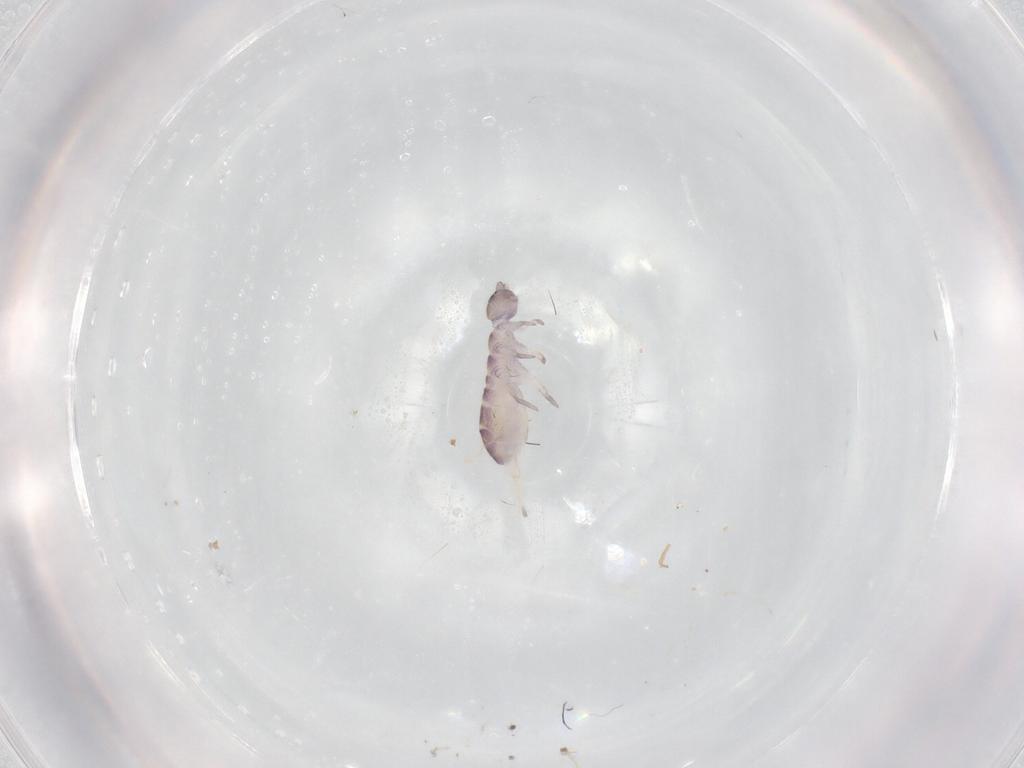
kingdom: Animalia
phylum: Arthropoda
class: Collembola
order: Entomobryomorpha
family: Isotomidae
